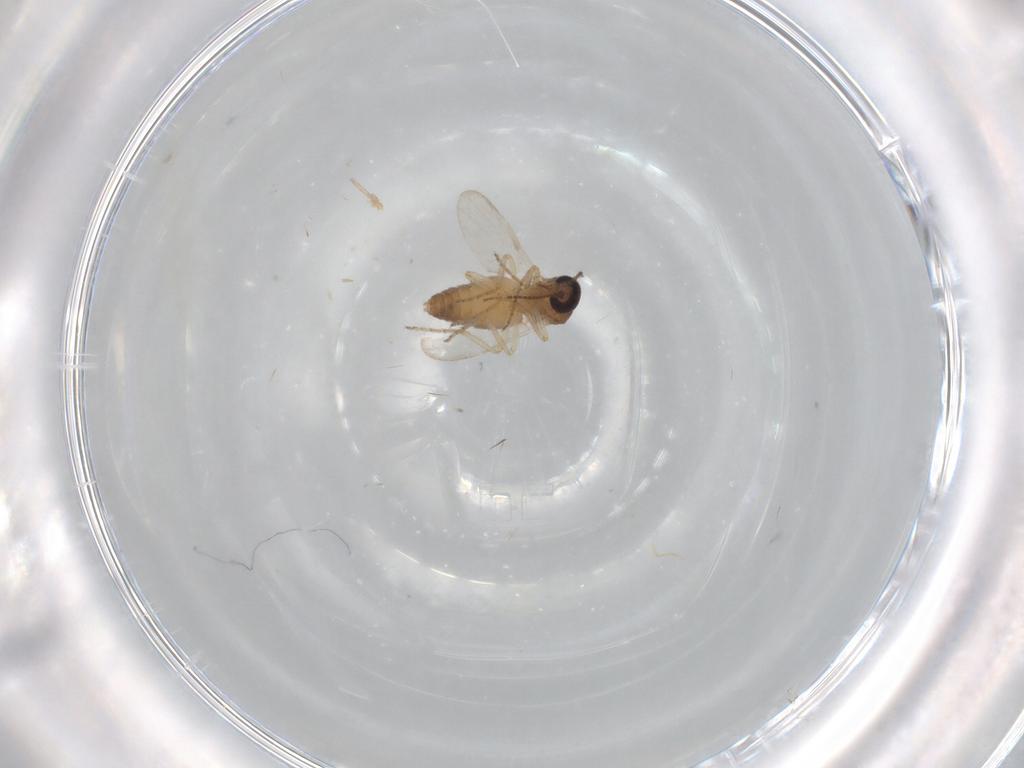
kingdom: Animalia
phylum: Arthropoda
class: Insecta
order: Diptera
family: Ceratopogonidae
